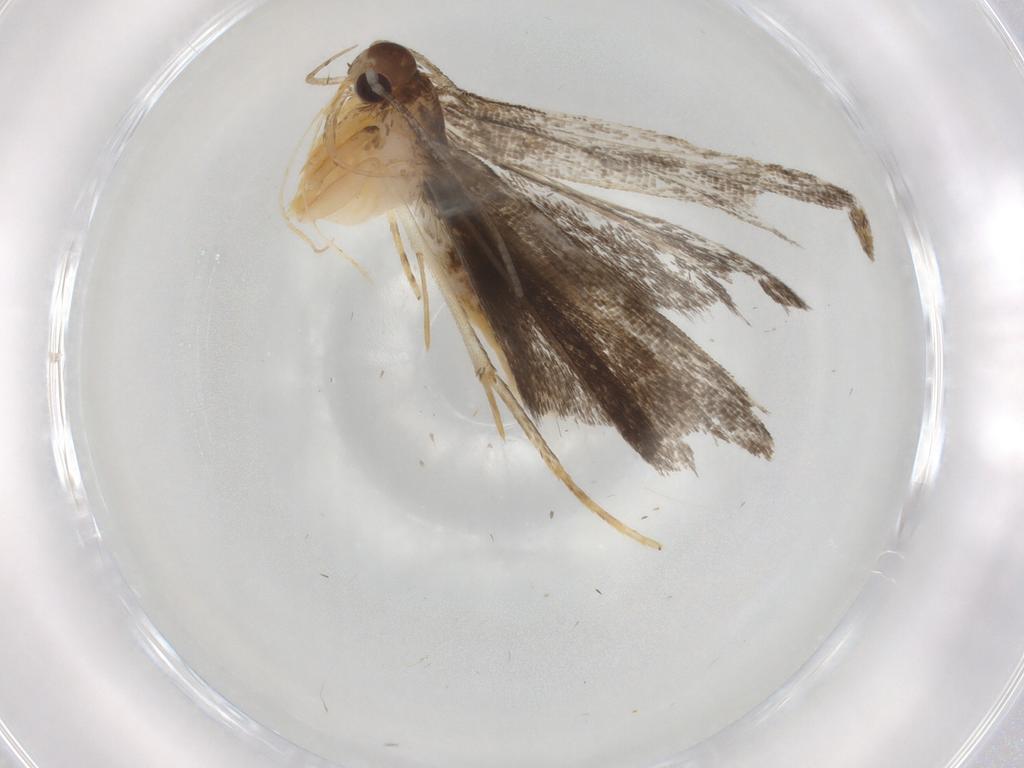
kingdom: Animalia
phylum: Arthropoda
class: Insecta
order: Lepidoptera
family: Cosmopterigidae
